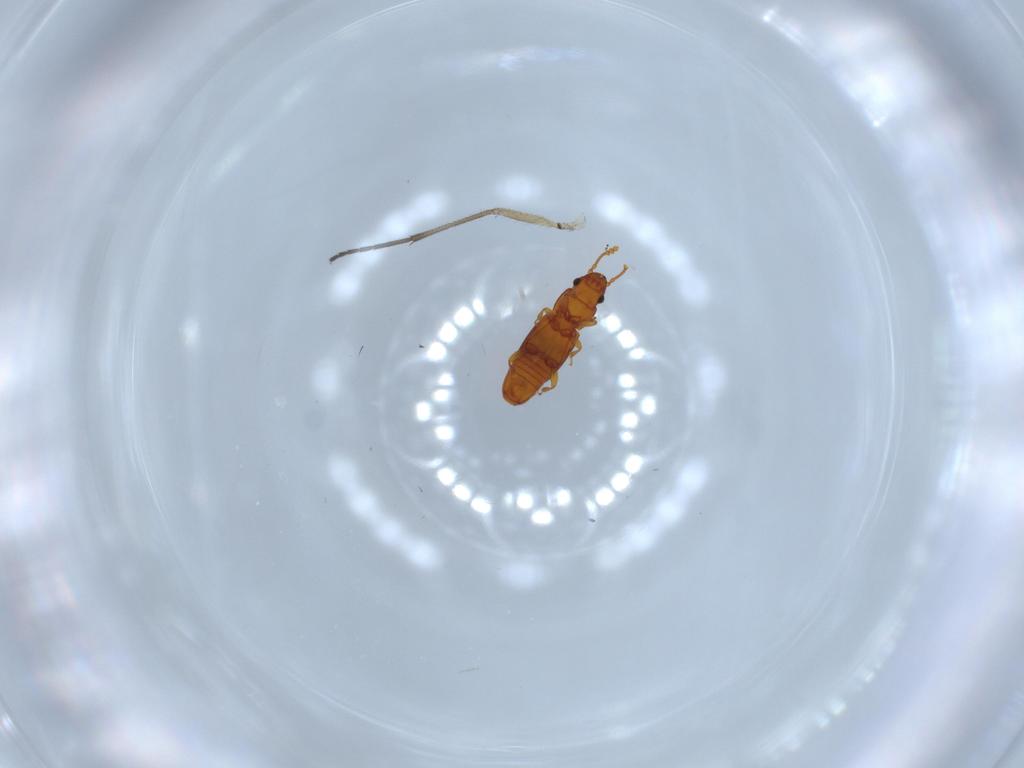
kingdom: Animalia
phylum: Arthropoda
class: Insecta
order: Coleoptera
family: Smicripidae
